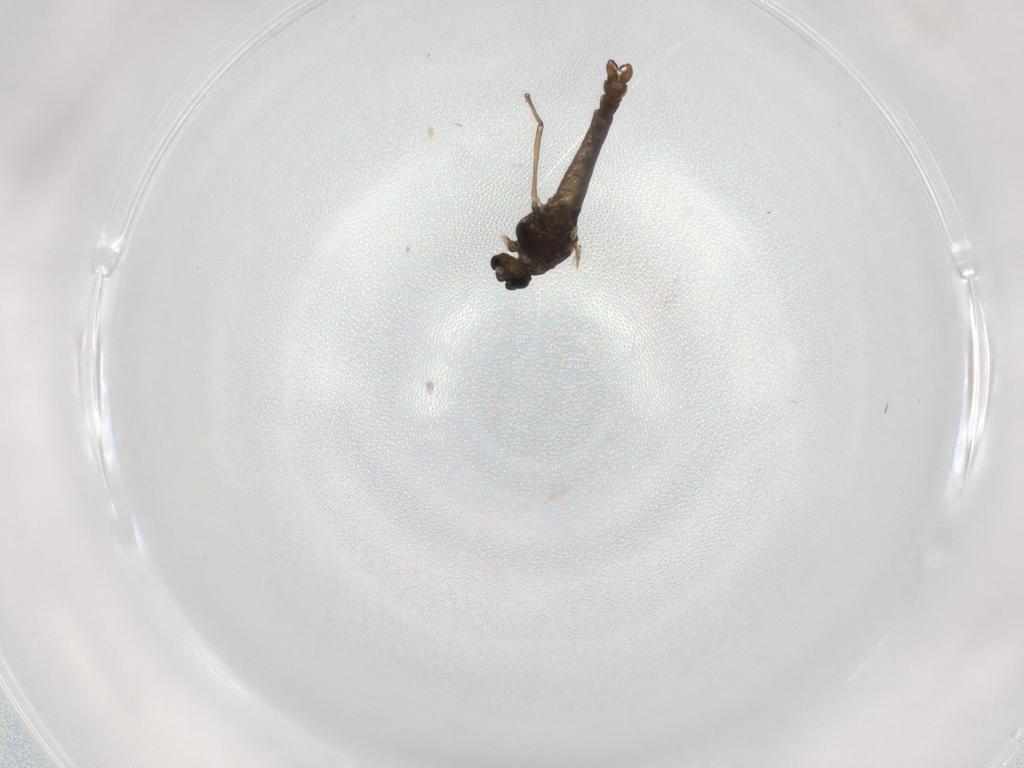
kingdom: Animalia
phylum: Arthropoda
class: Insecta
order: Diptera
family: Chironomidae
